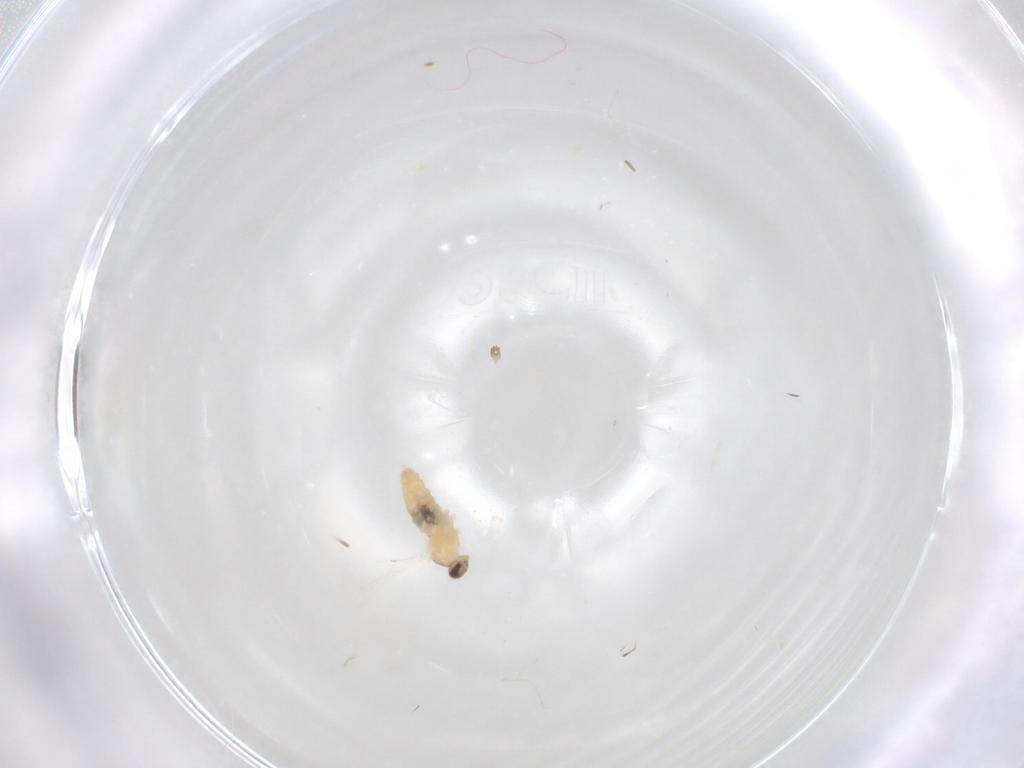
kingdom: Animalia
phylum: Arthropoda
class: Insecta
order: Diptera
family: Cecidomyiidae
